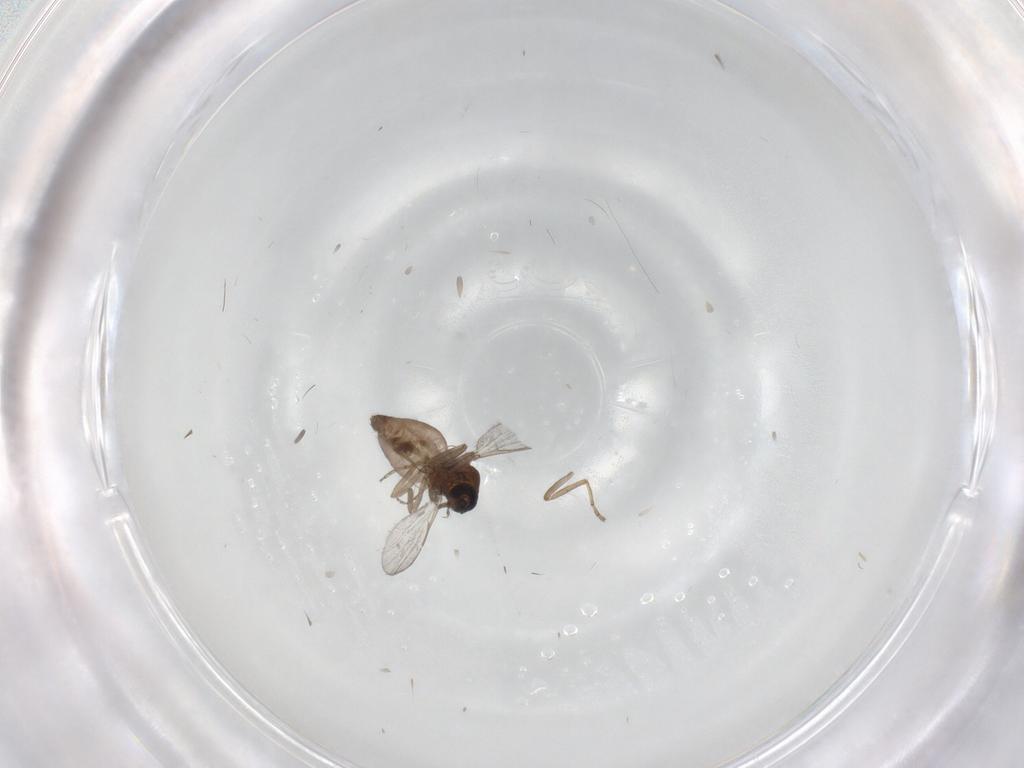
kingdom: Animalia
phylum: Arthropoda
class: Insecta
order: Diptera
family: Ceratopogonidae
